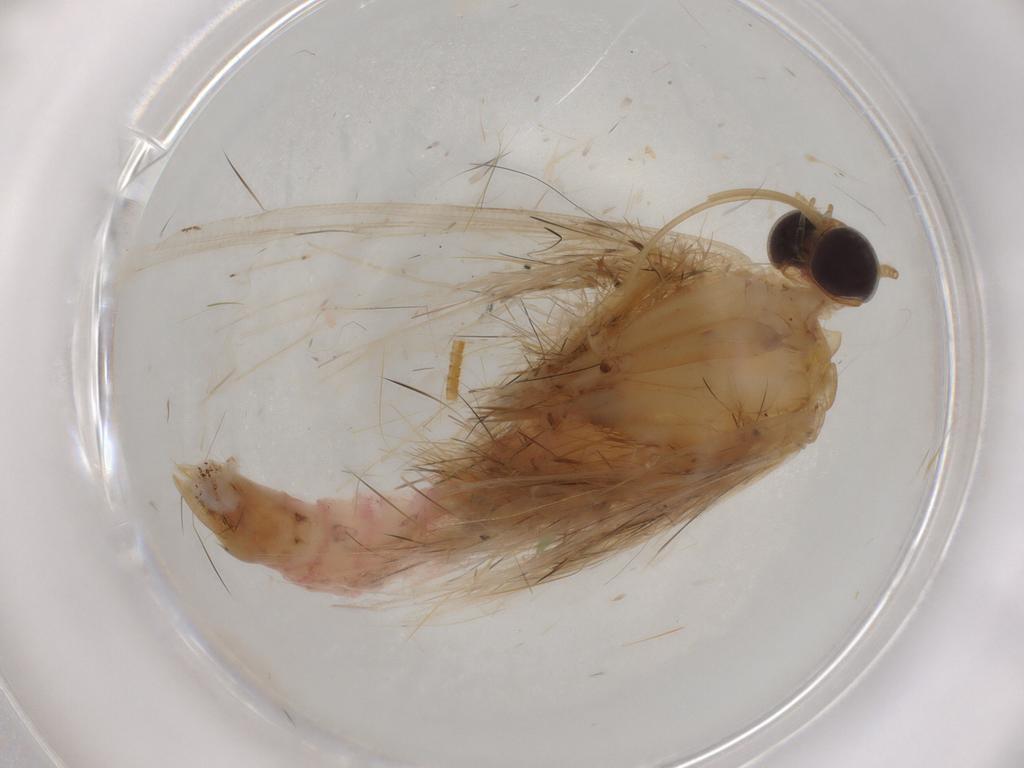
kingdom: Animalia
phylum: Arthropoda
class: Insecta
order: Lepidoptera
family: Geometridae
